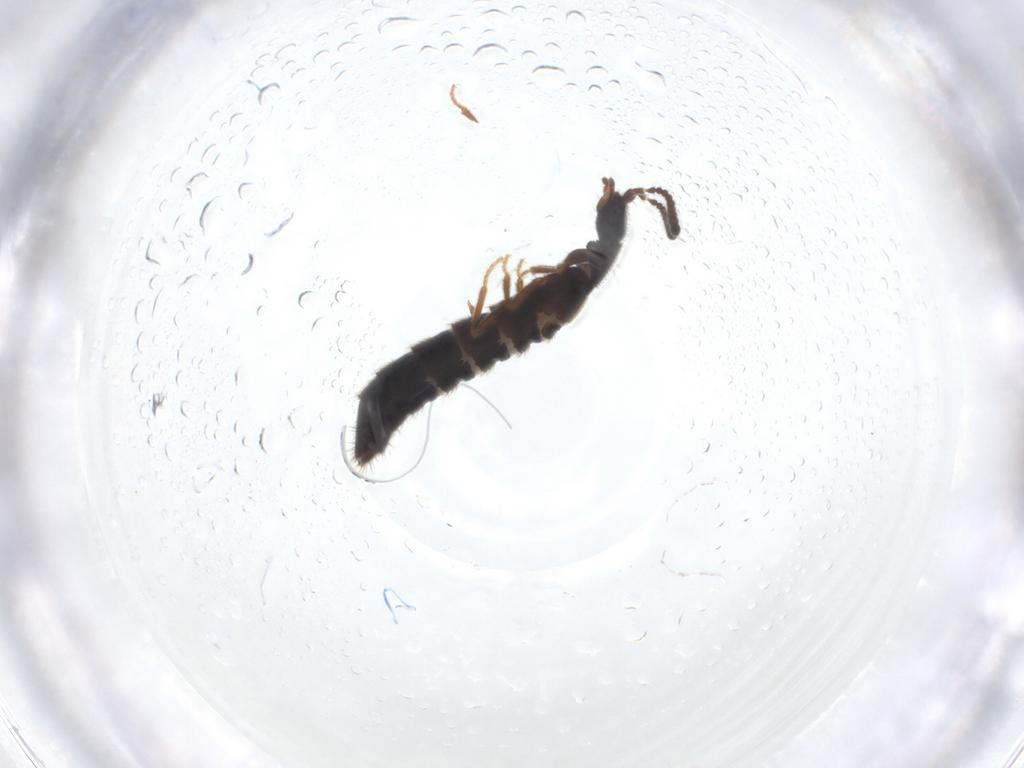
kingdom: Animalia
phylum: Arthropoda
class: Insecta
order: Coleoptera
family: Staphylinidae
